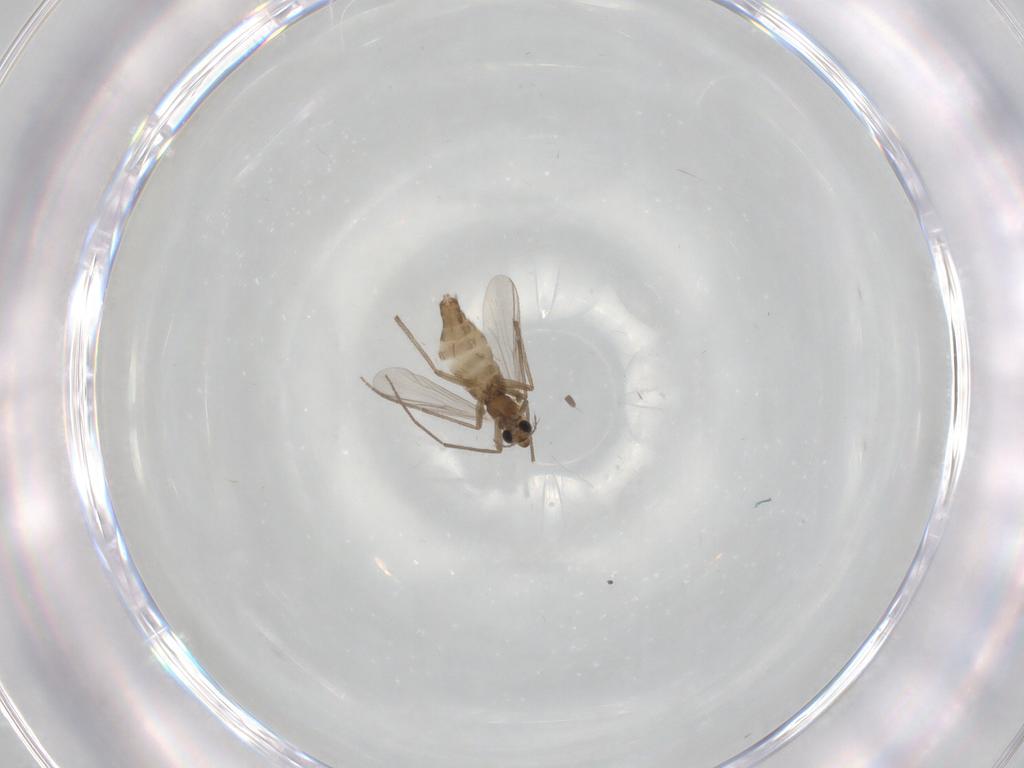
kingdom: Animalia
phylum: Arthropoda
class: Insecta
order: Diptera
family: Chironomidae
